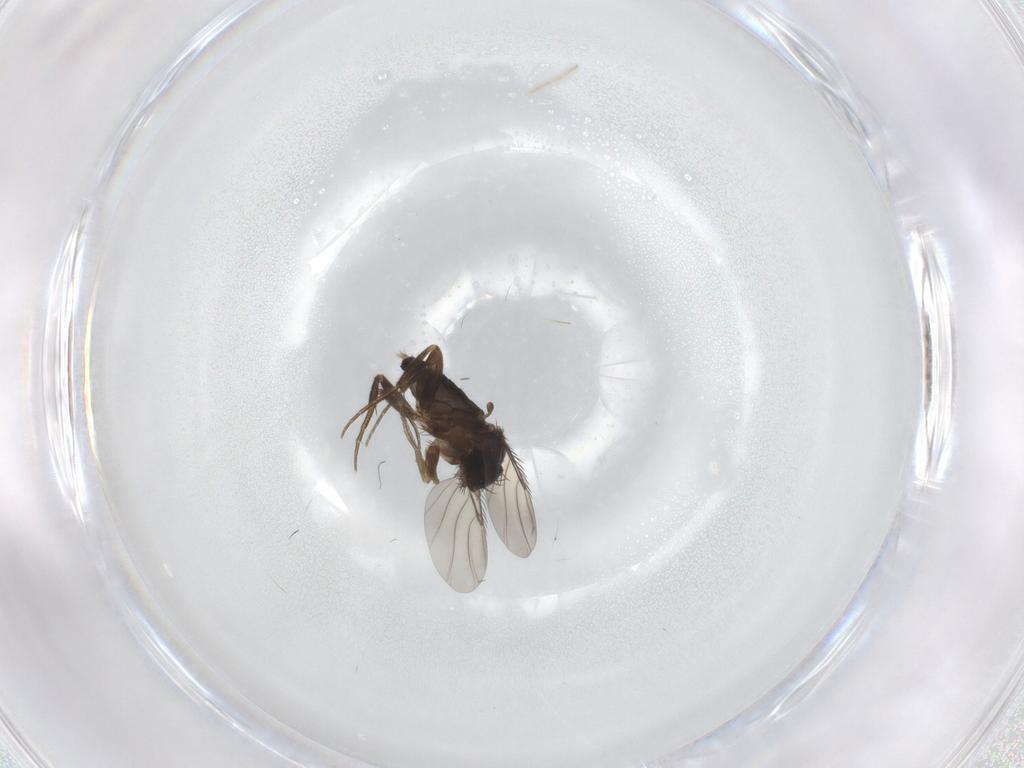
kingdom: Animalia
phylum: Arthropoda
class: Insecta
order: Diptera
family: Phoridae
